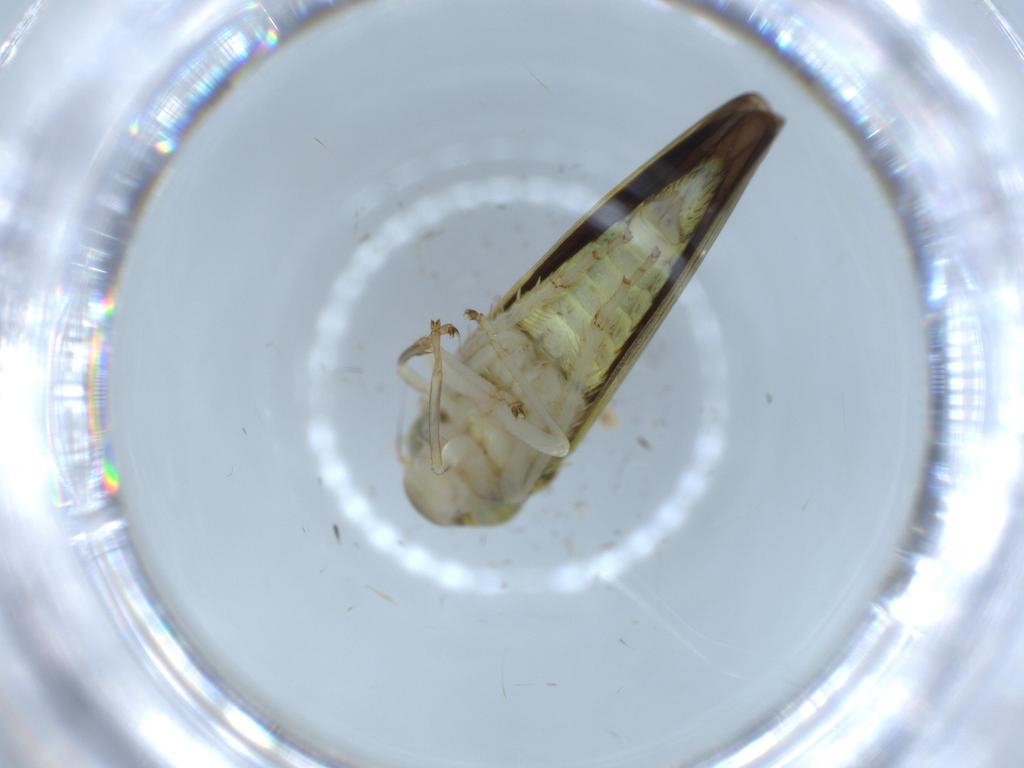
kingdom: Animalia
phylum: Arthropoda
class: Insecta
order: Hemiptera
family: Cicadellidae
